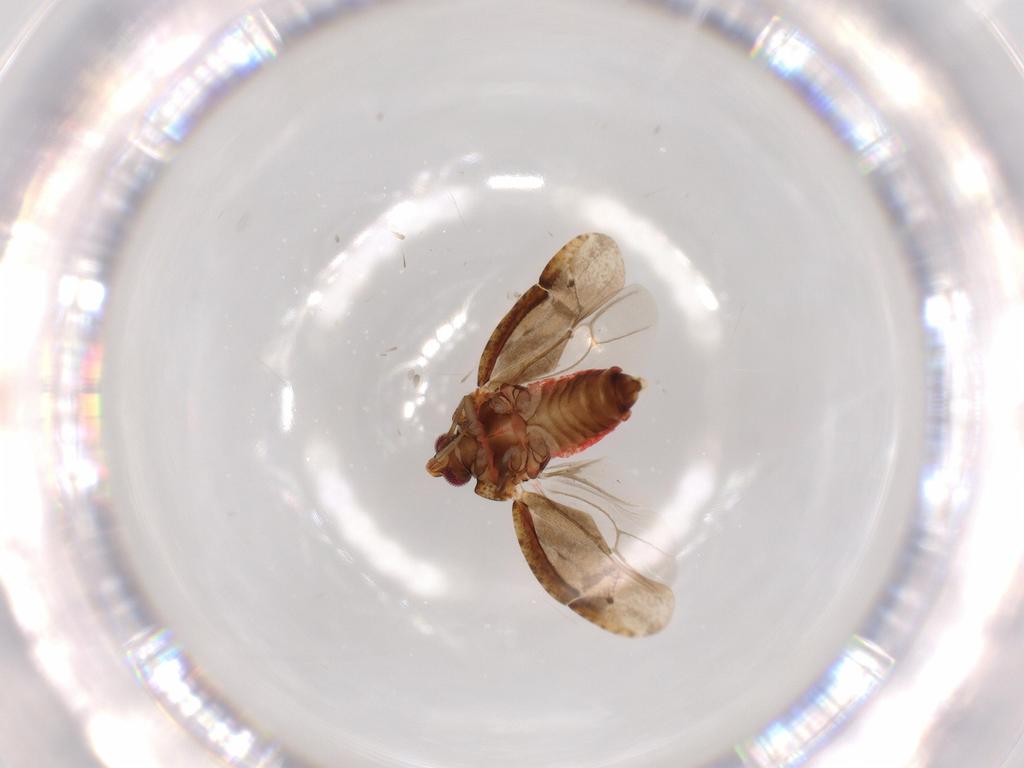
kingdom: Animalia
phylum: Arthropoda
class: Insecta
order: Hemiptera
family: Miridae
